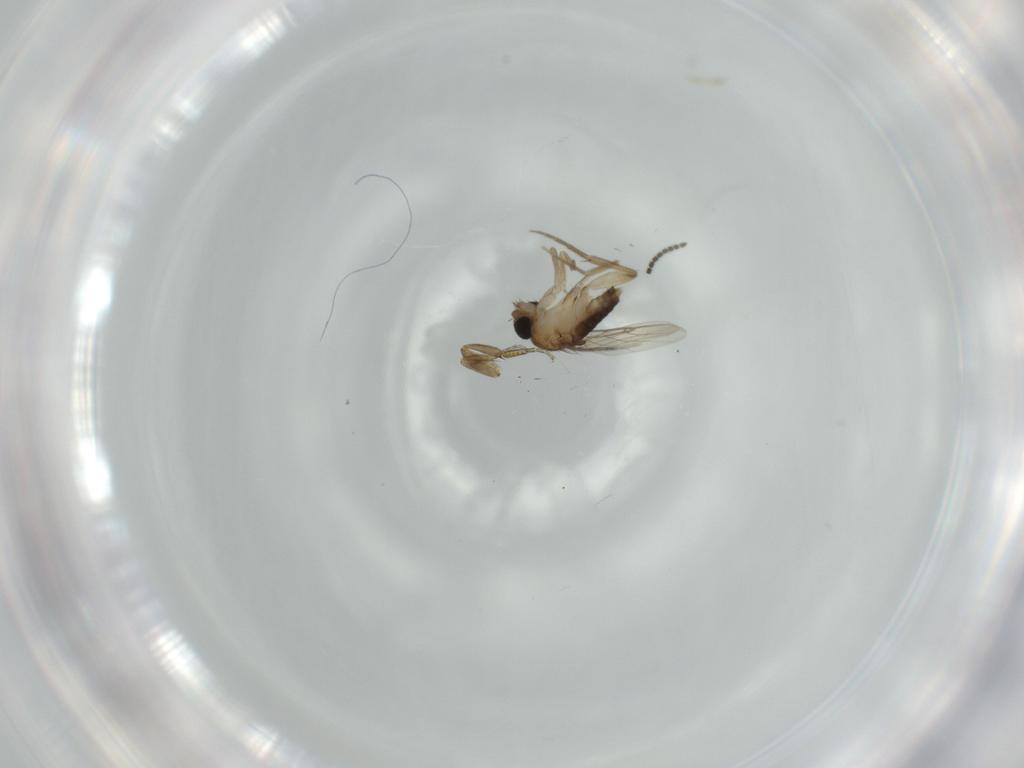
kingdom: Animalia
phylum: Arthropoda
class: Insecta
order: Diptera
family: Phoridae
